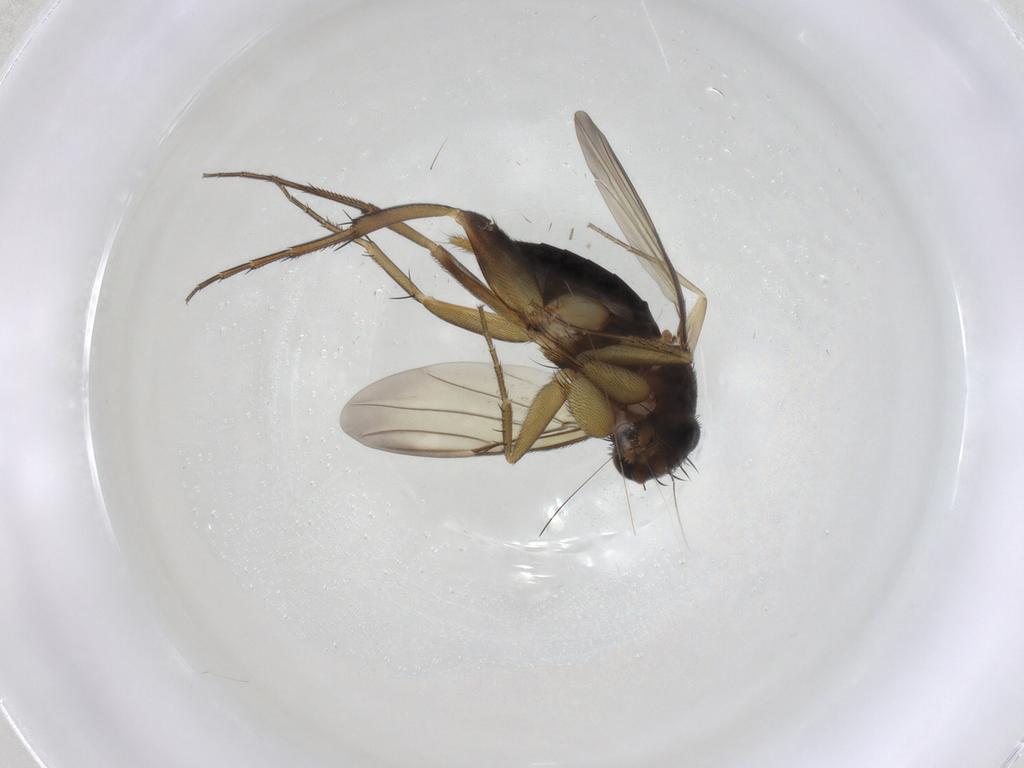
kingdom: Animalia
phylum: Arthropoda
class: Insecta
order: Diptera
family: Phoridae
